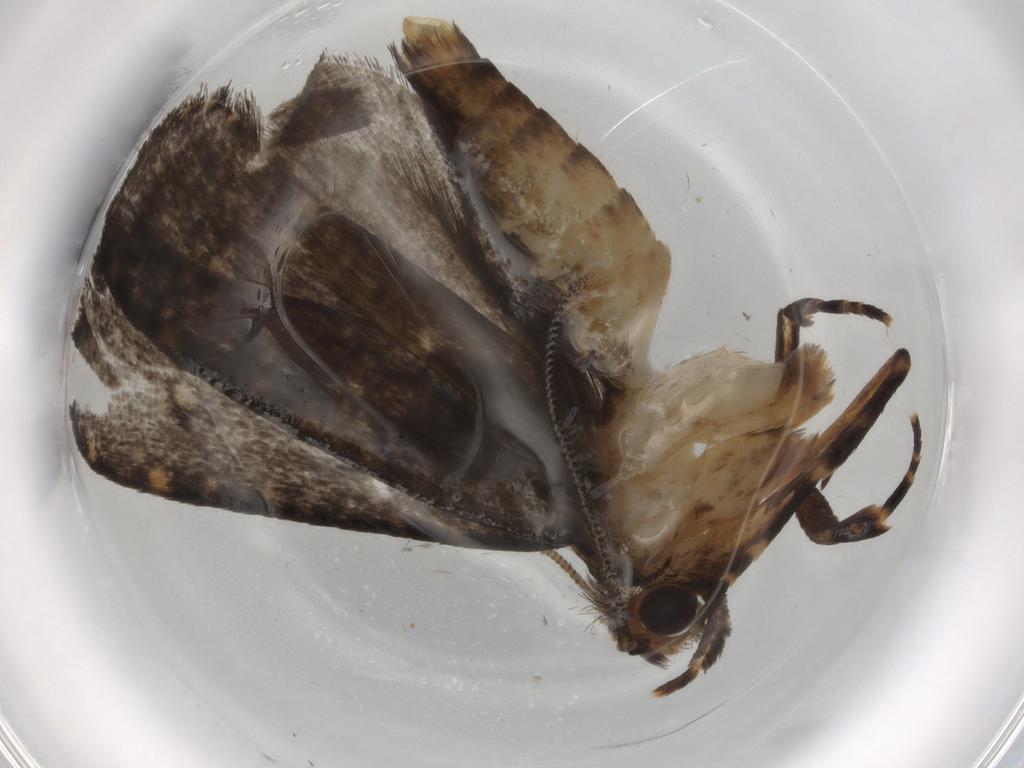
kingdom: Animalia
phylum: Arthropoda
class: Insecta
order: Lepidoptera
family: Tineidae
